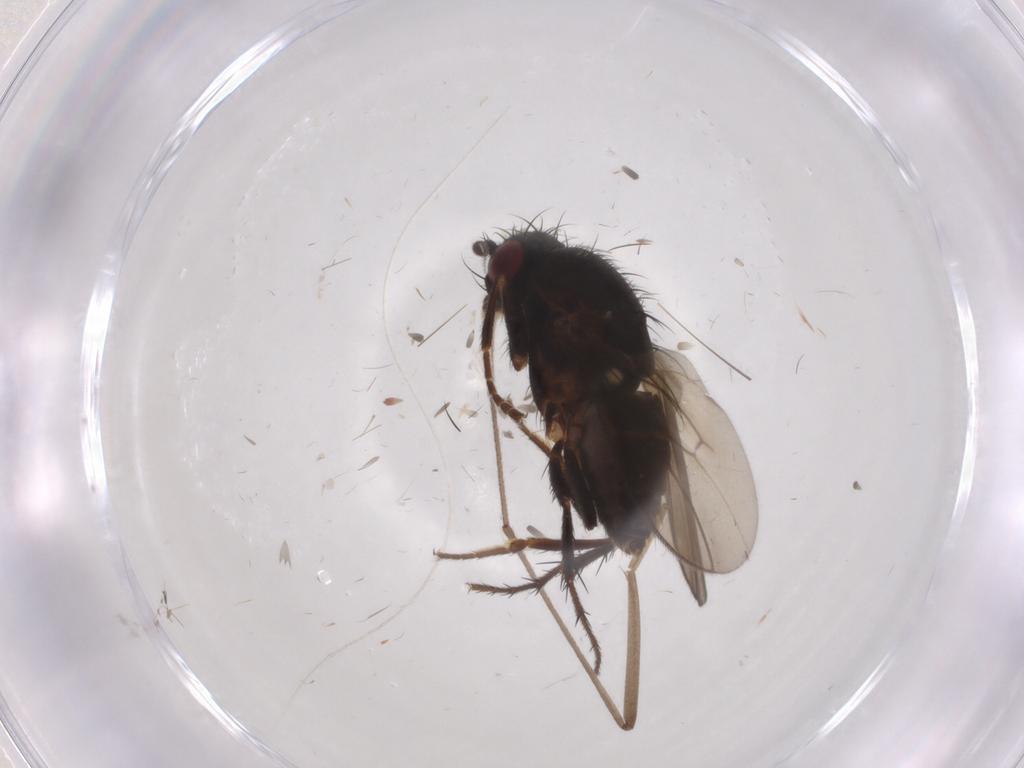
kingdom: Animalia
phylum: Arthropoda
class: Insecta
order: Diptera
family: Sphaeroceridae
